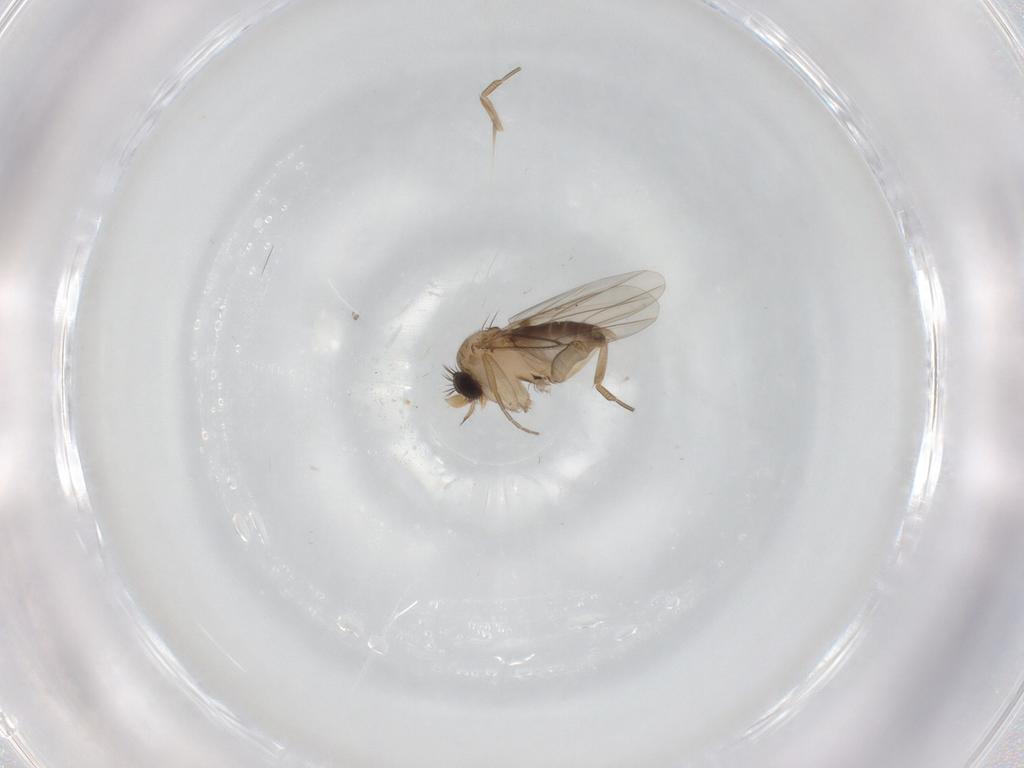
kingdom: Animalia
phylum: Arthropoda
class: Insecta
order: Diptera
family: Phoridae
